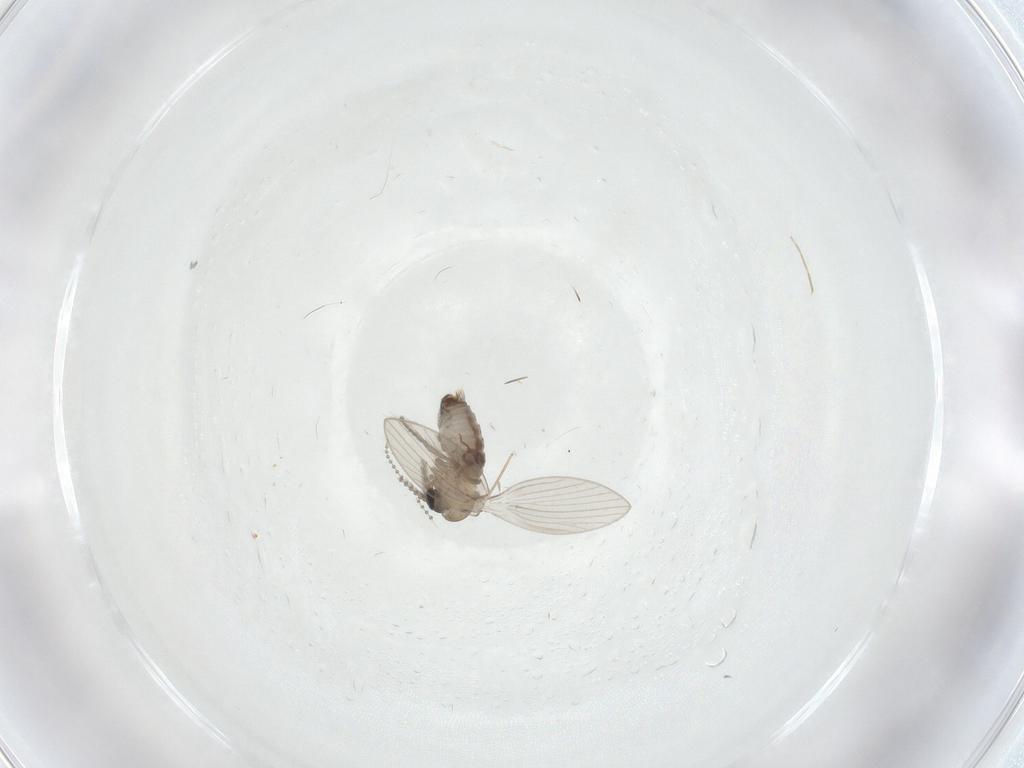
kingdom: Animalia
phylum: Arthropoda
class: Insecta
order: Diptera
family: Psychodidae
